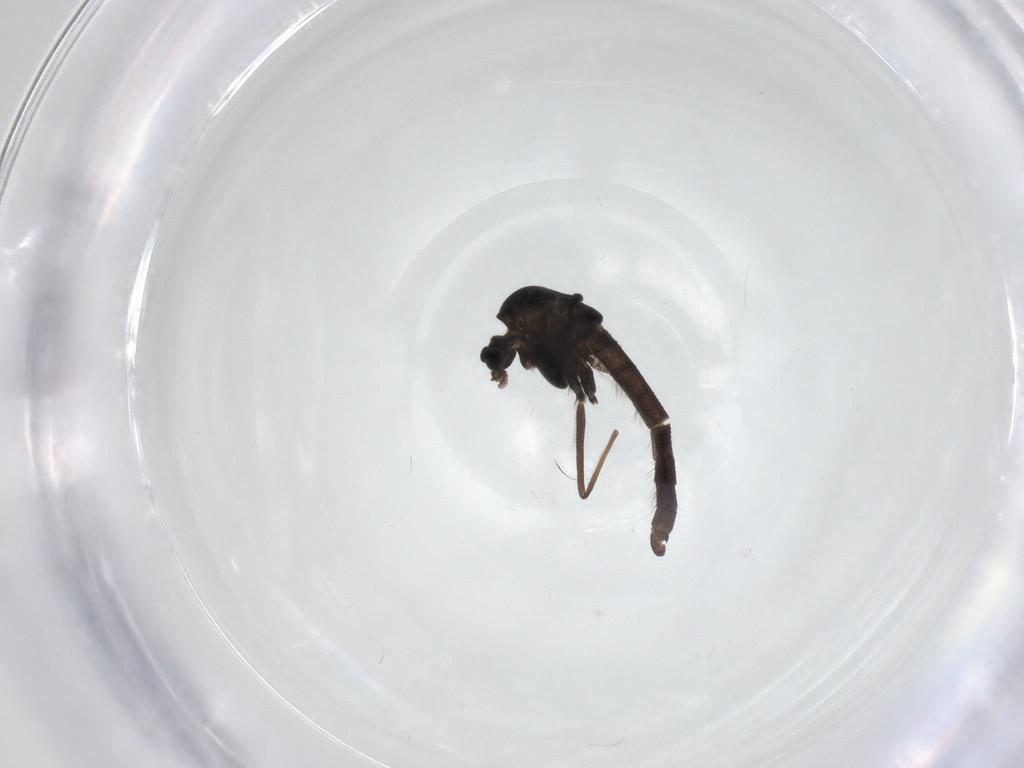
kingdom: Animalia
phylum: Arthropoda
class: Insecta
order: Diptera
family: Chironomidae
